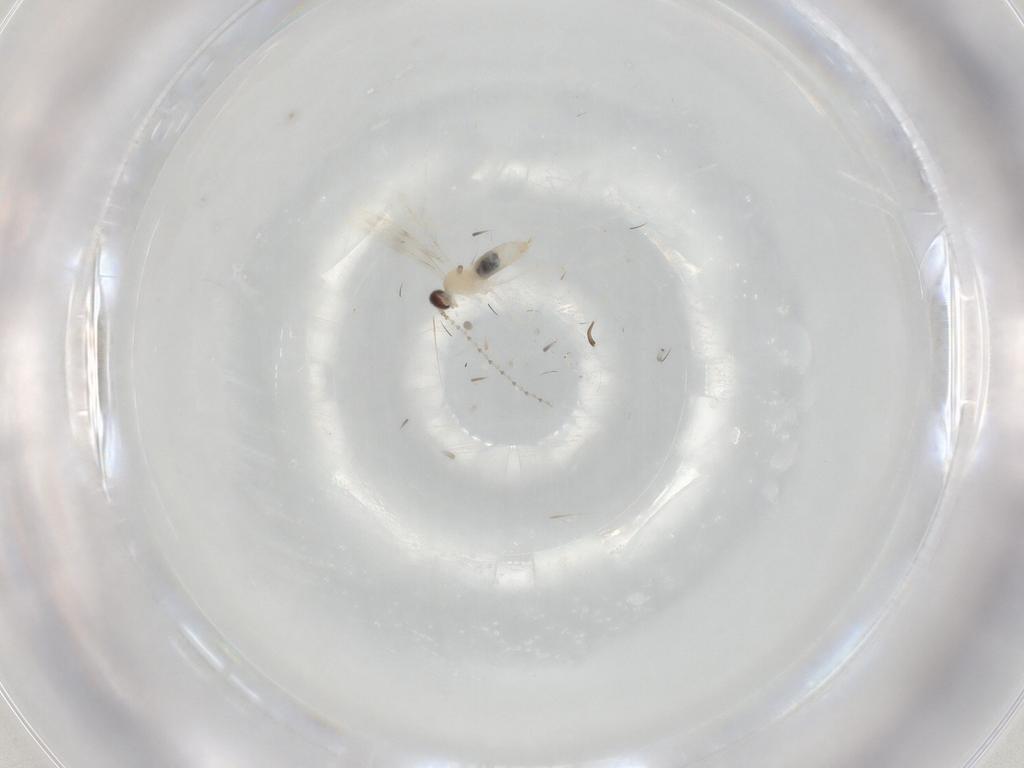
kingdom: Animalia
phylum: Arthropoda
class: Insecta
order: Diptera
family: Cecidomyiidae
